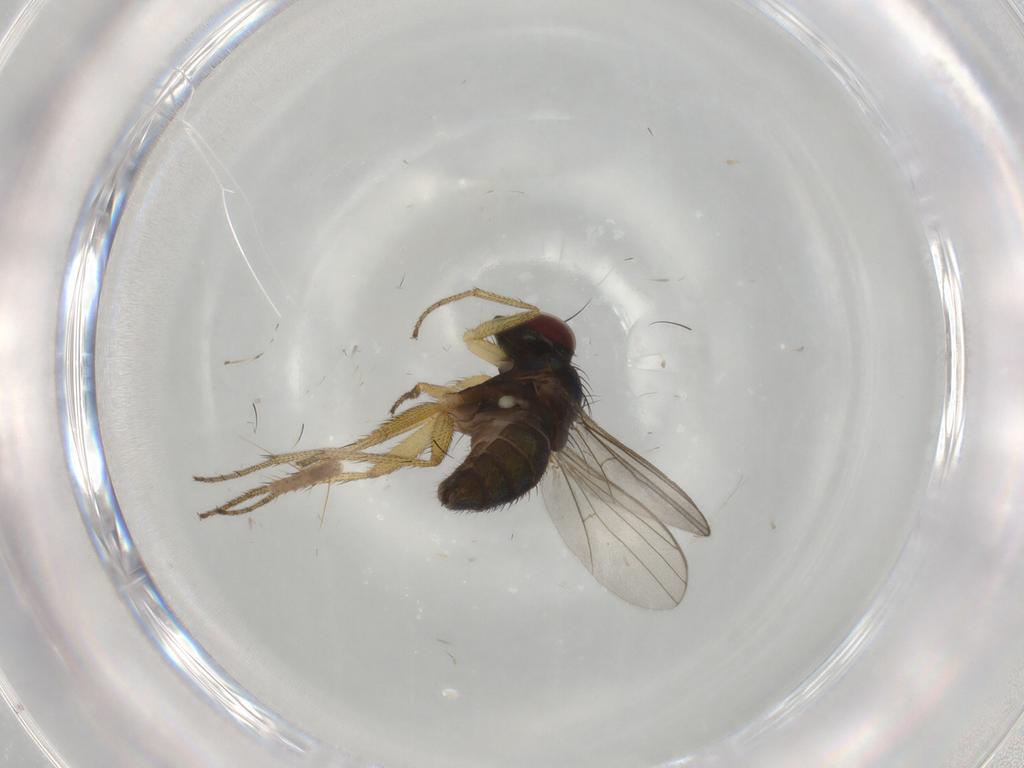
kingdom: Animalia
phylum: Arthropoda
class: Insecta
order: Diptera
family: Dolichopodidae
